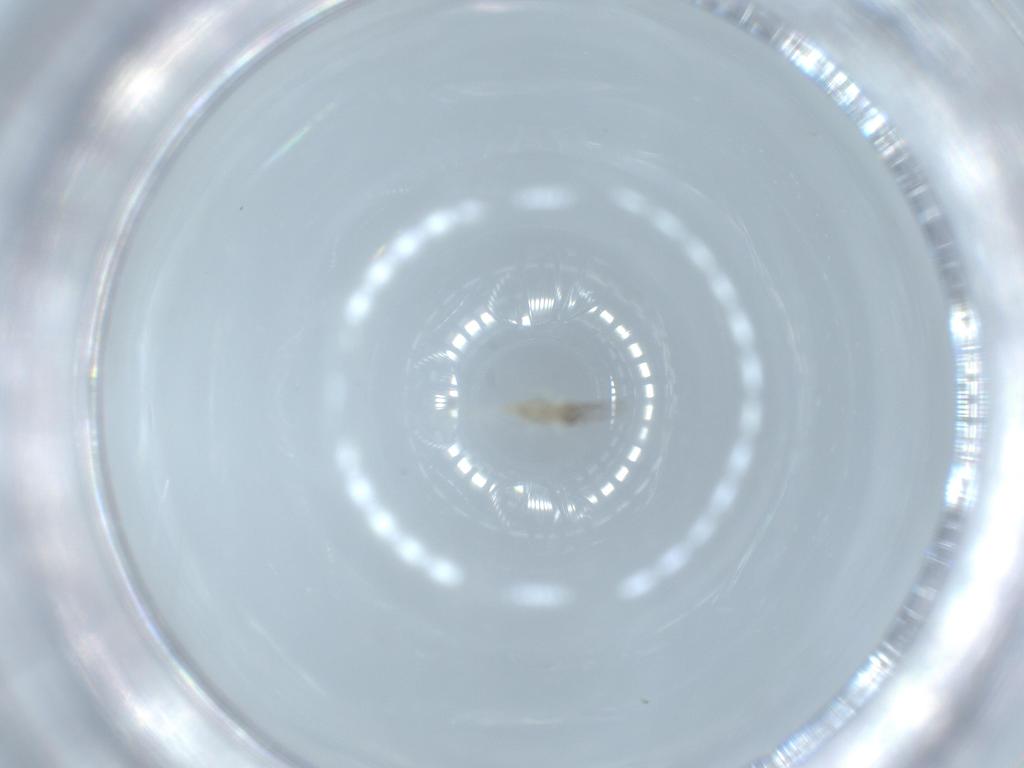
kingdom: Animalia
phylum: Arthropoda
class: Insecta
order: Diptera
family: Cecidomyiidae
